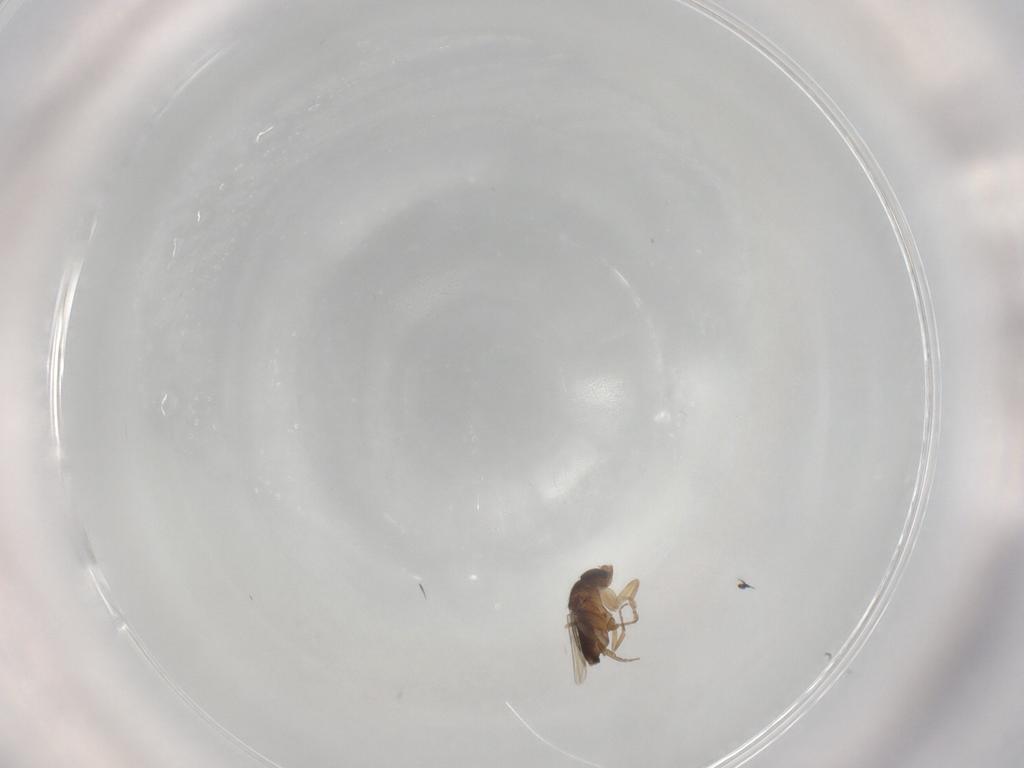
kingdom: Animalia
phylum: Arthropoda
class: Insecta
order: Diptera
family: Phoridae
